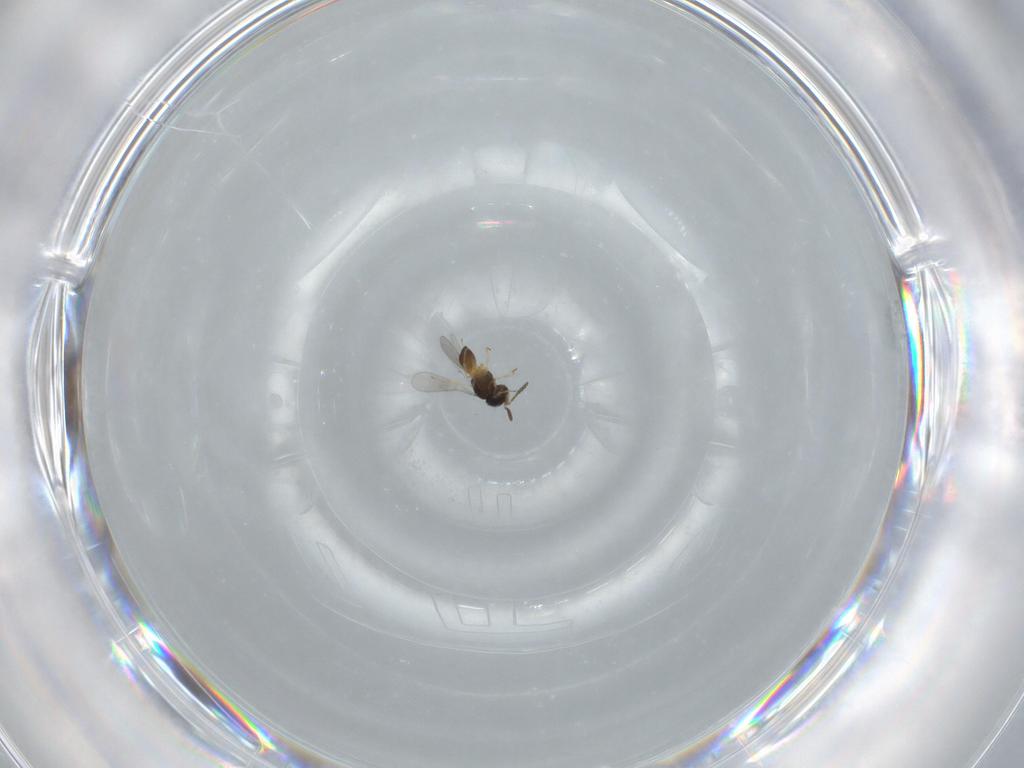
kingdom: Animalia
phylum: Arthropoda
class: Insecta
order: Hymenoptera
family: Scelionidae
